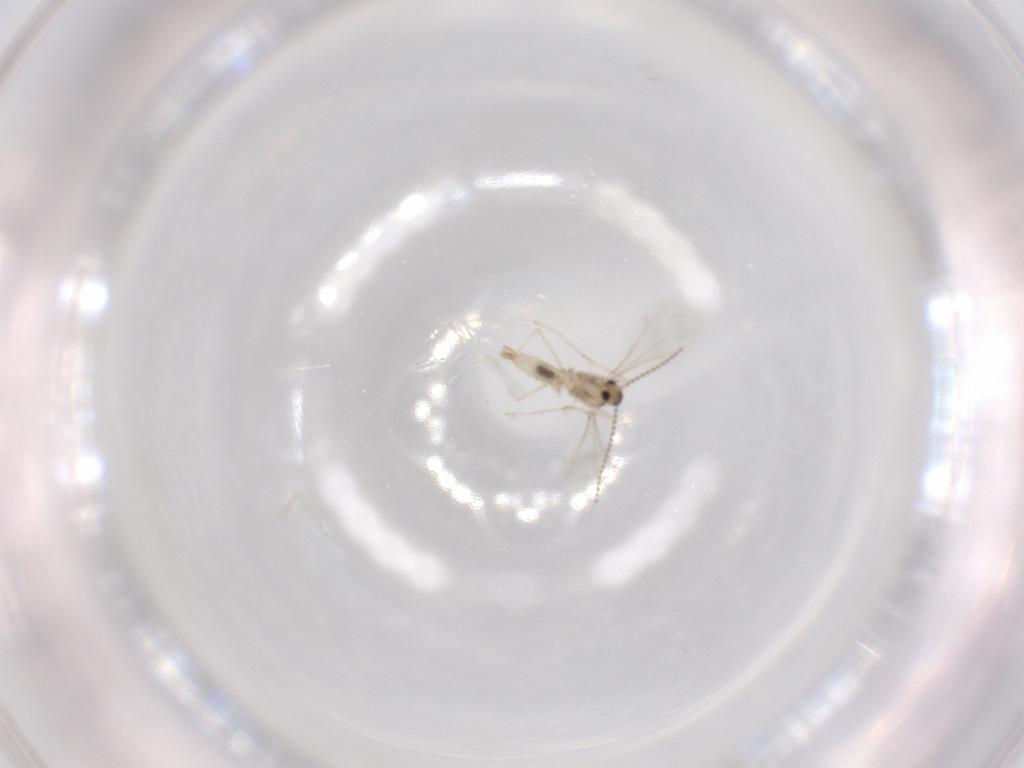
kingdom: Animalia
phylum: Arthropoda
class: Insecta
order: Diptera
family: Cecidomyiidae
